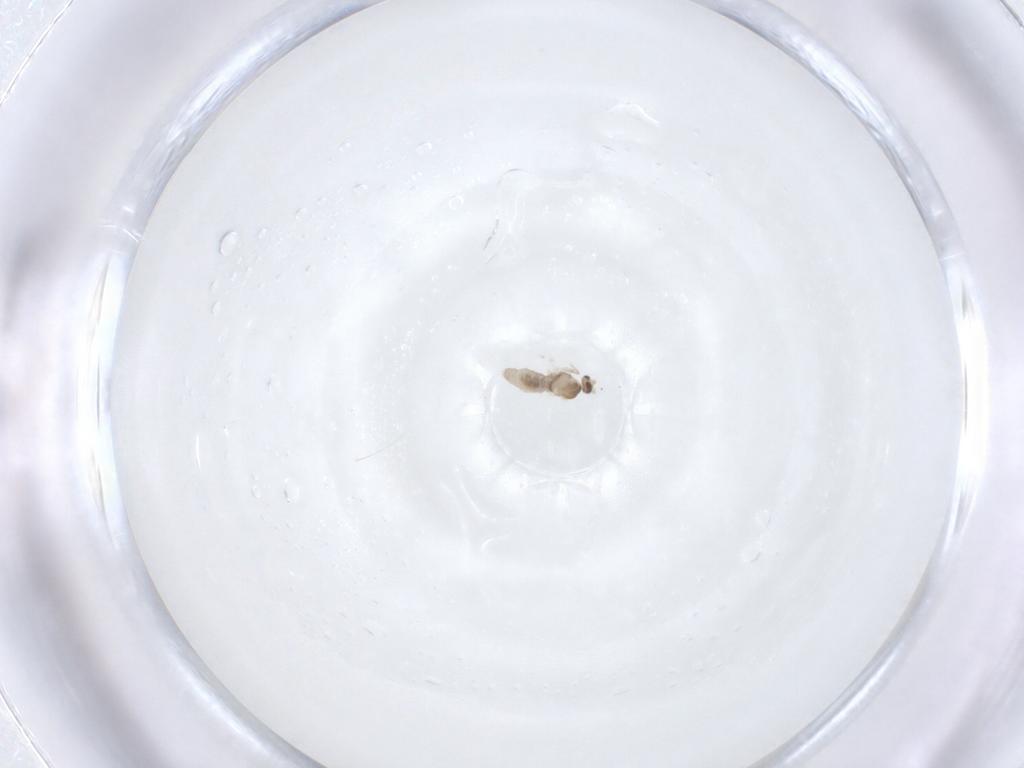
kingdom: Animalia
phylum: Arthropoda
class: Insecta
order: Diptera
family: Cecidomyiidae
